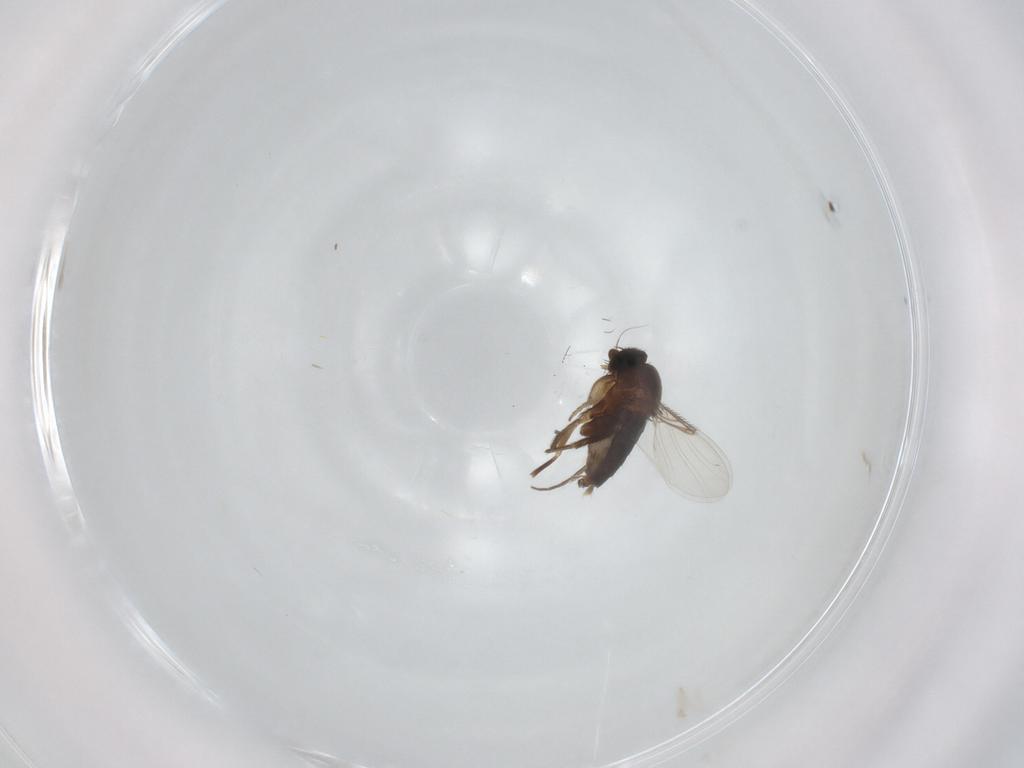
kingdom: Animalia
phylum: Arthropoda
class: Insecta
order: Diptera
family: Phoridae
